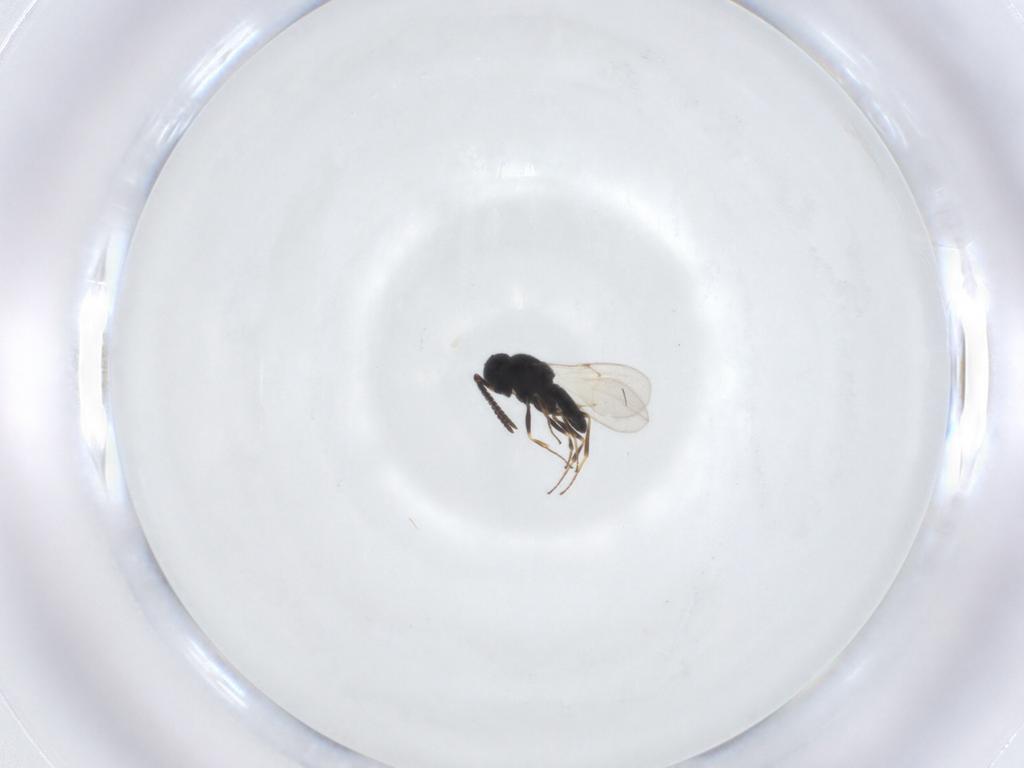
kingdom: Animalia
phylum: Arthropoda
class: Insecta
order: Hymenoptera
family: Scelionidae
